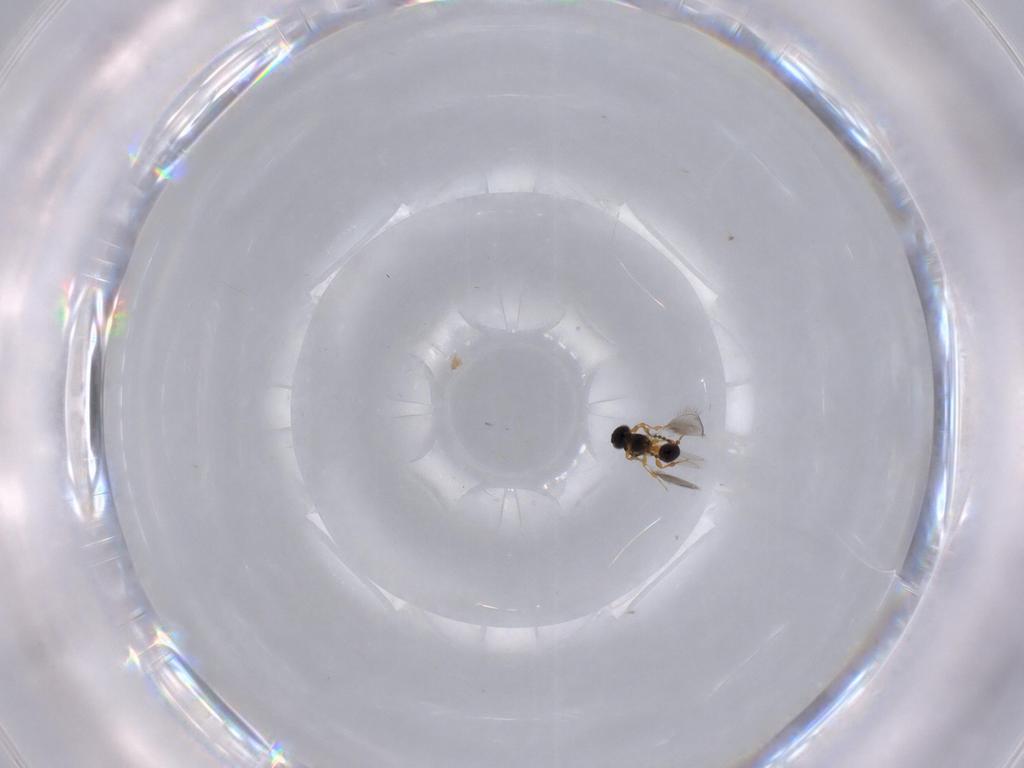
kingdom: Animalia
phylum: Arthropoda
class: Insecta
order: Hymenoptera
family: Platygastridae
